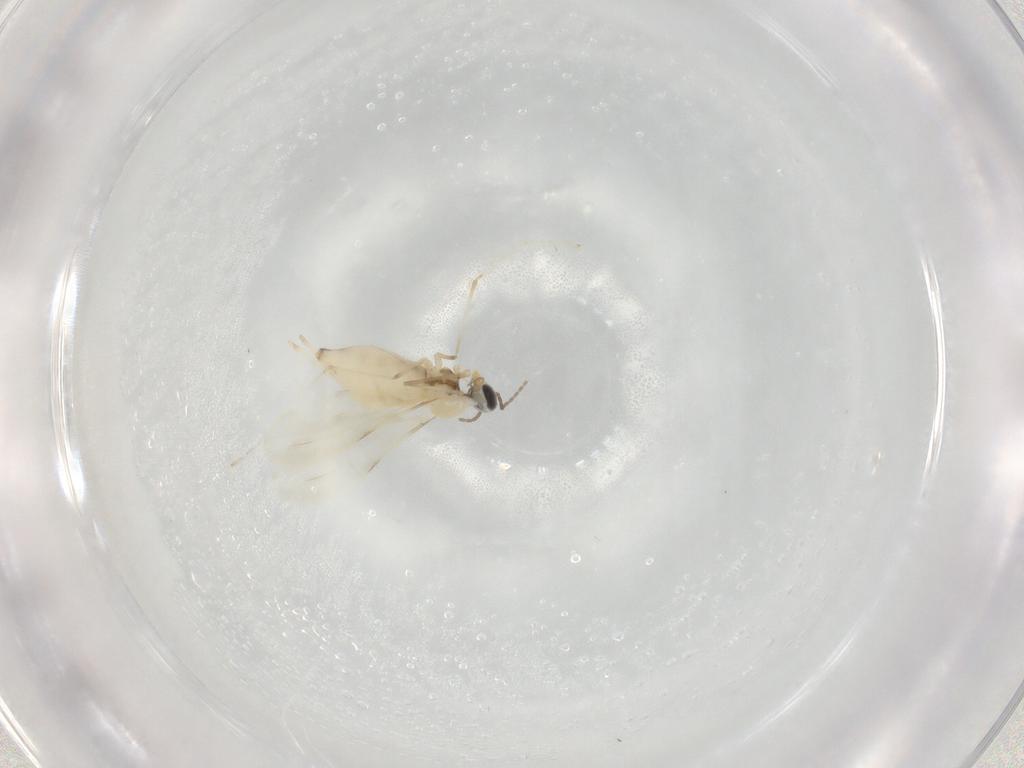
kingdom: Animalia
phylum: Arthropoda
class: Insecta
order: Diptera
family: Cecidomyiidae
